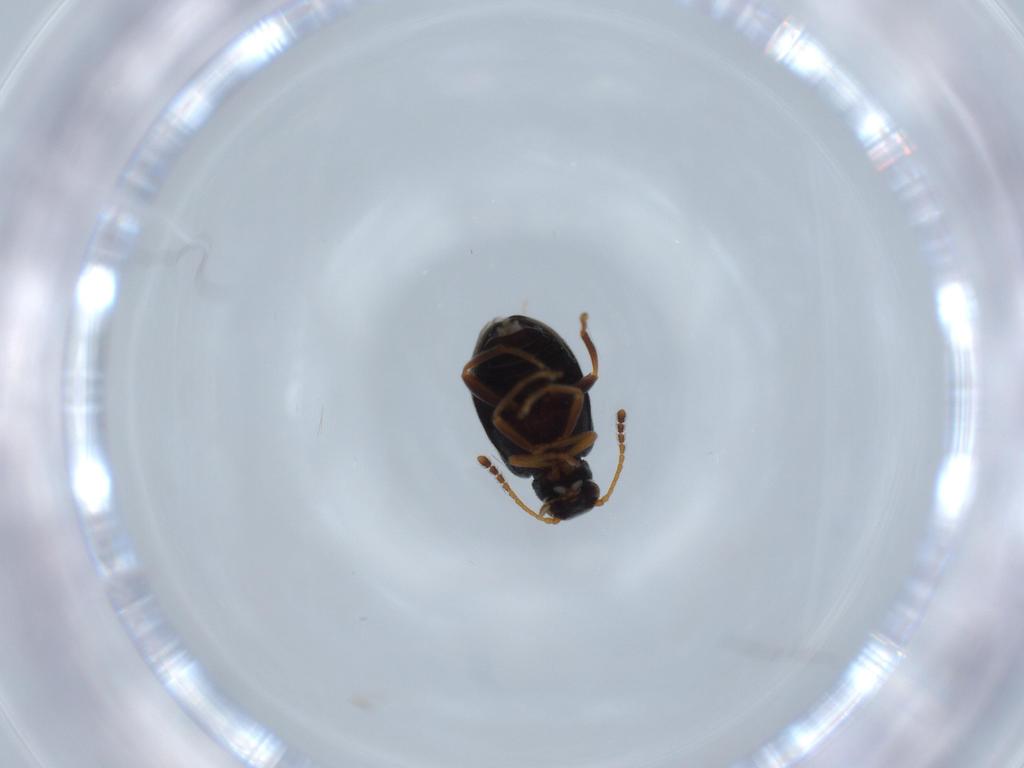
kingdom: Animalia
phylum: Arthropoda
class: Insecta
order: Coleoptera
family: Aderidae
